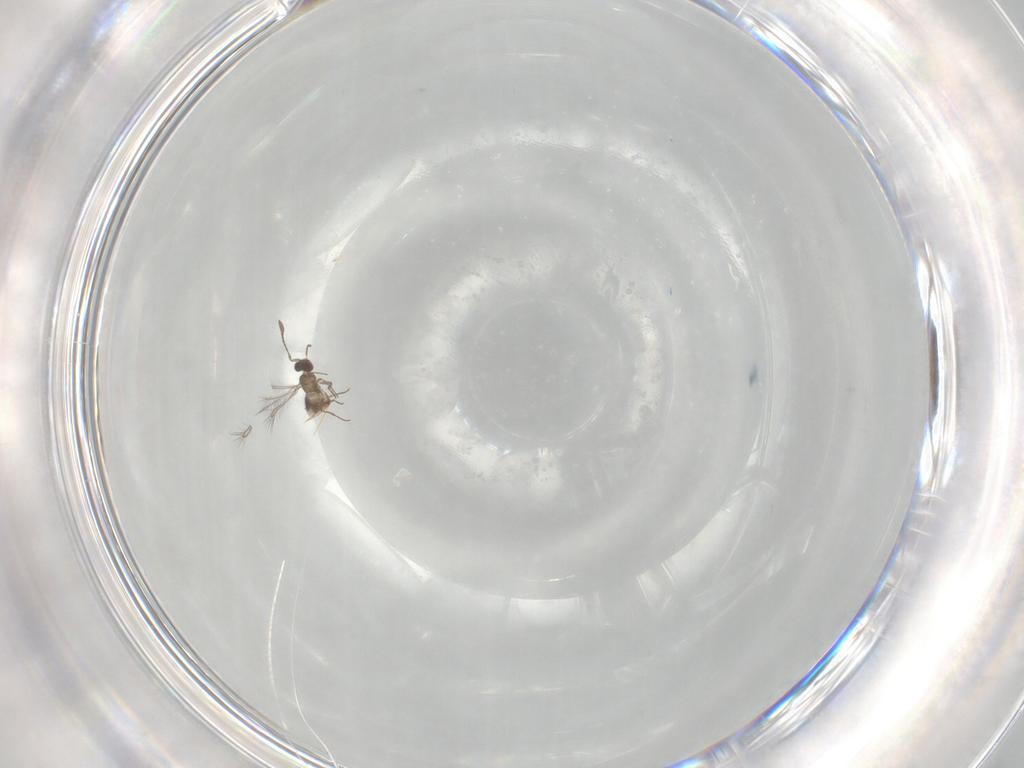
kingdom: Animalia
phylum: Arthropoda
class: Insecta
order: Hymenoptera
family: Mymaridae
